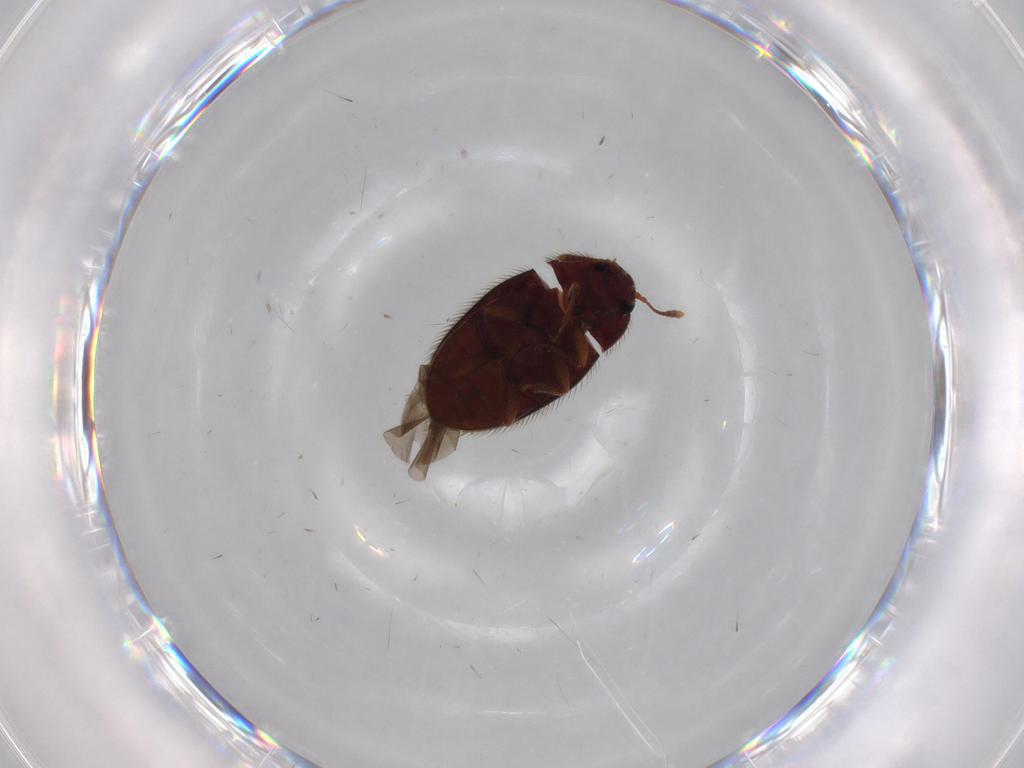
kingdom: Animalia
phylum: Arthropoda
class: Insecta
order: Coleoptera
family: Biphyllidae
